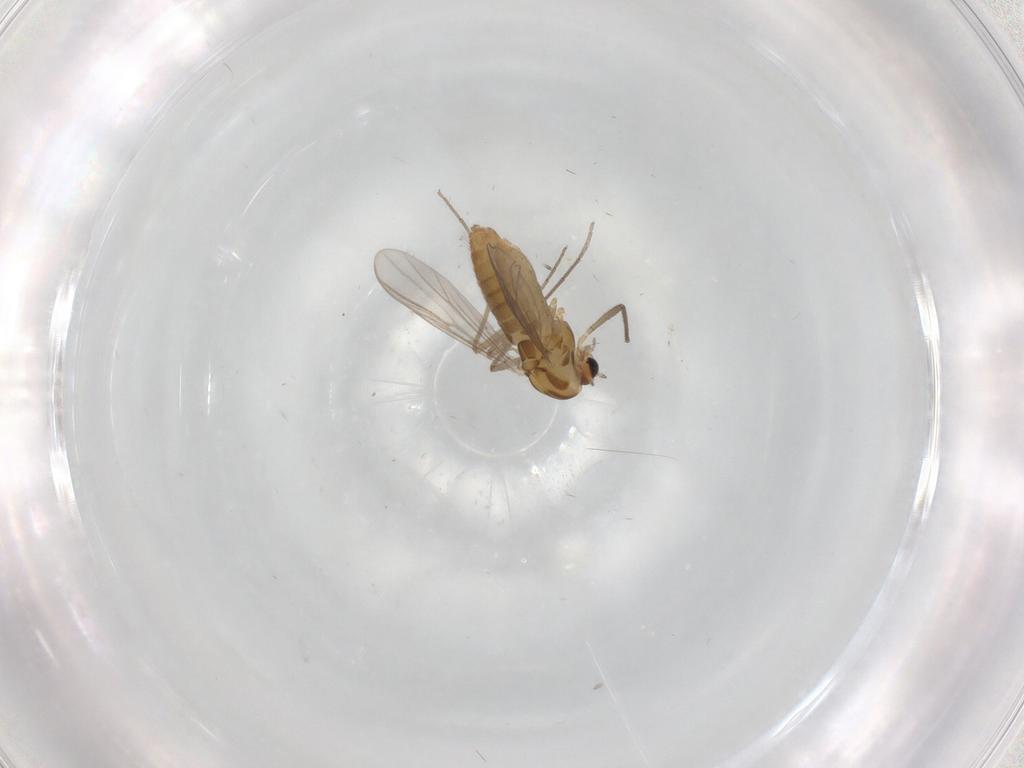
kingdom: Animalia
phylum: Arthropoda
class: Insecta
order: Diptera
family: Chironomidae
